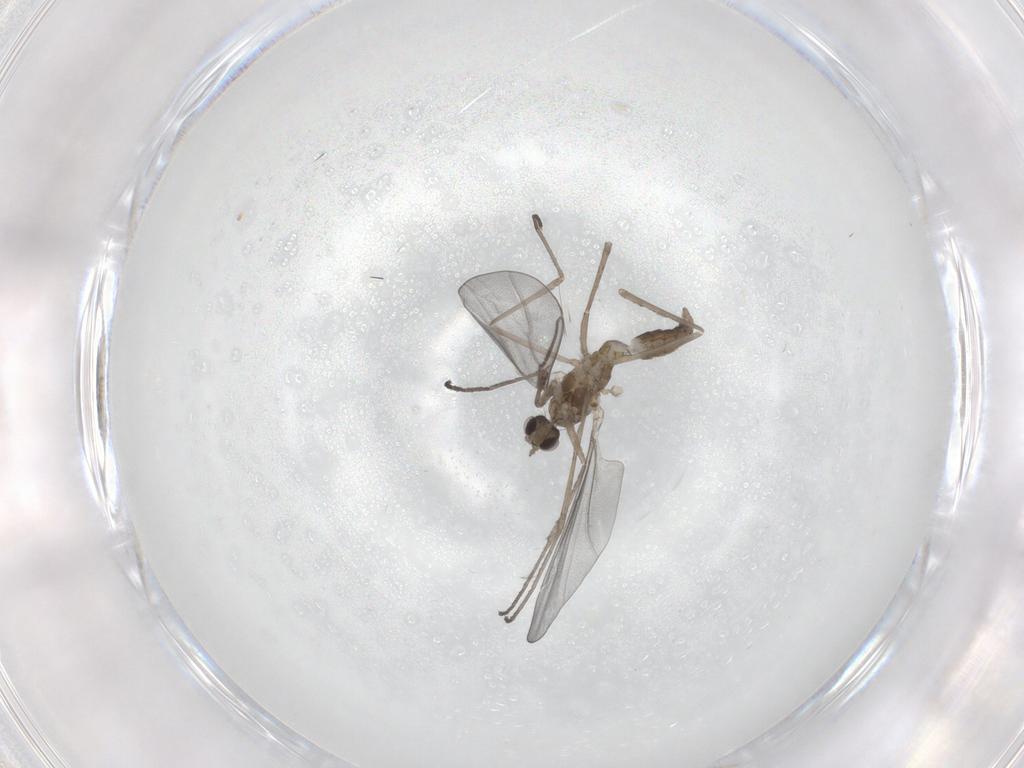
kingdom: Animalia
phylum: Arthropoda
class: Insecta
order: Diptera
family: Cecidomyiidae
